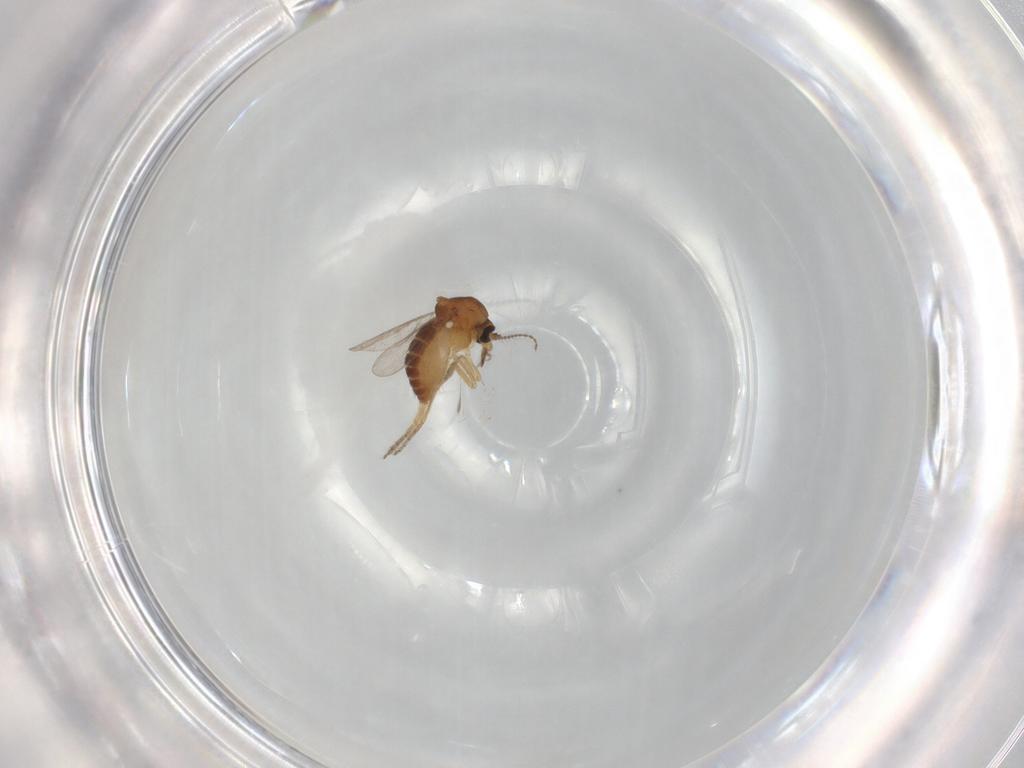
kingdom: Animalia
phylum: Arthropoda
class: Insecta
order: Diptera
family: Ceratopogonidae
